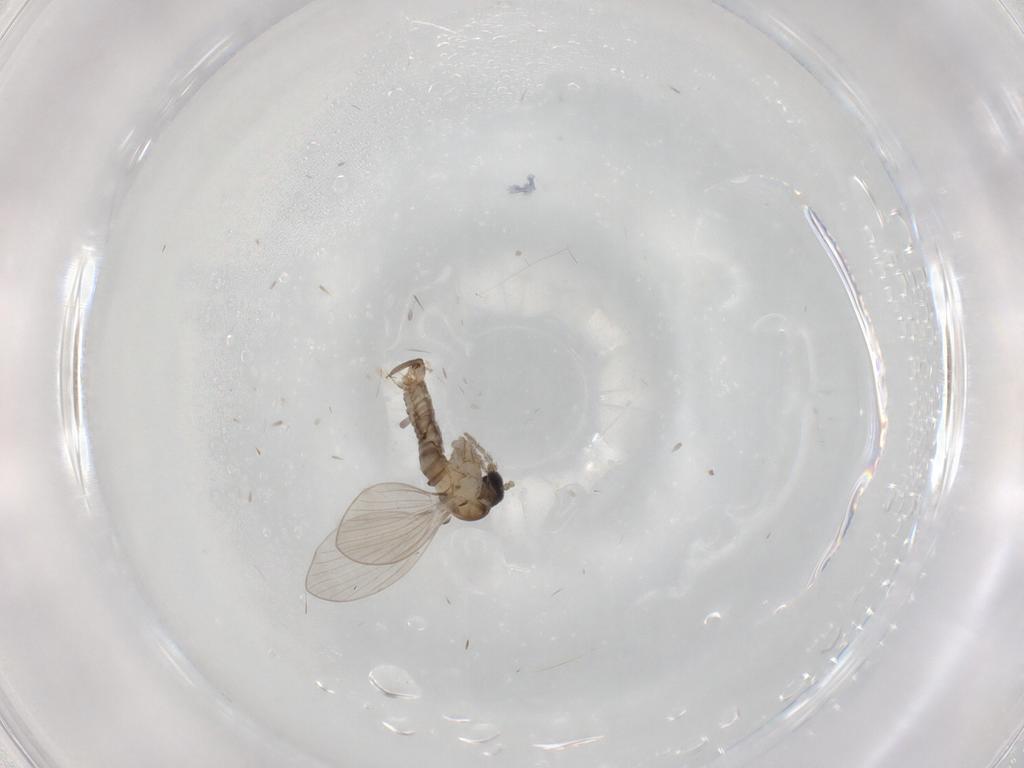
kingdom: Animalia
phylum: Arthropoda
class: Insecta
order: Diptera
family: Drosophilidae
